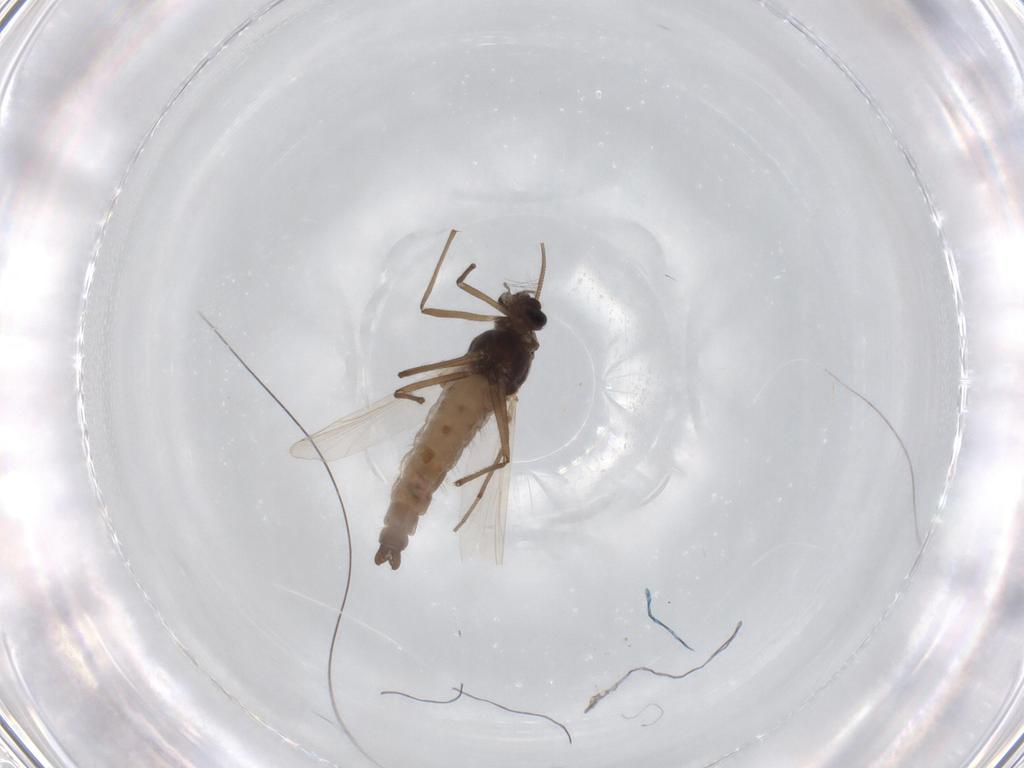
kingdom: Animalia
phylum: Arthropoda
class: Insecta
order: Diptera
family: Chironomidae
